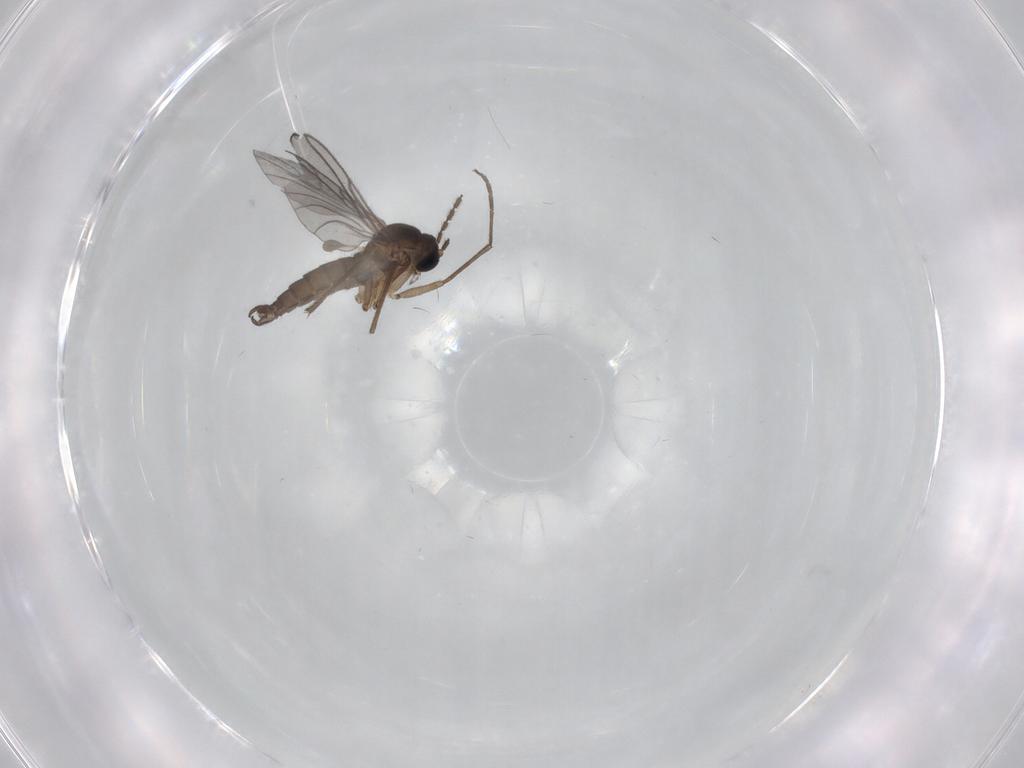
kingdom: Animalia
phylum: Arthropoda
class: Insecta
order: Diptera
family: Sciaridae
